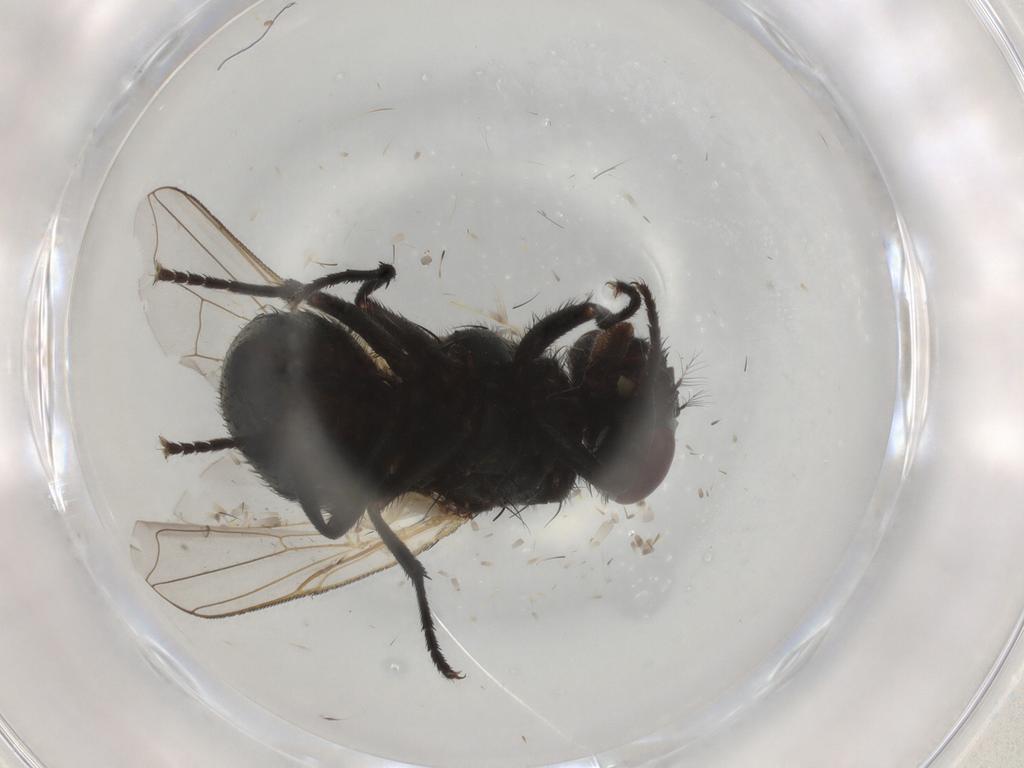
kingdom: Animalia
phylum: Arthropoda
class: Insecta
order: Diptera
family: Ceratopogonidae
